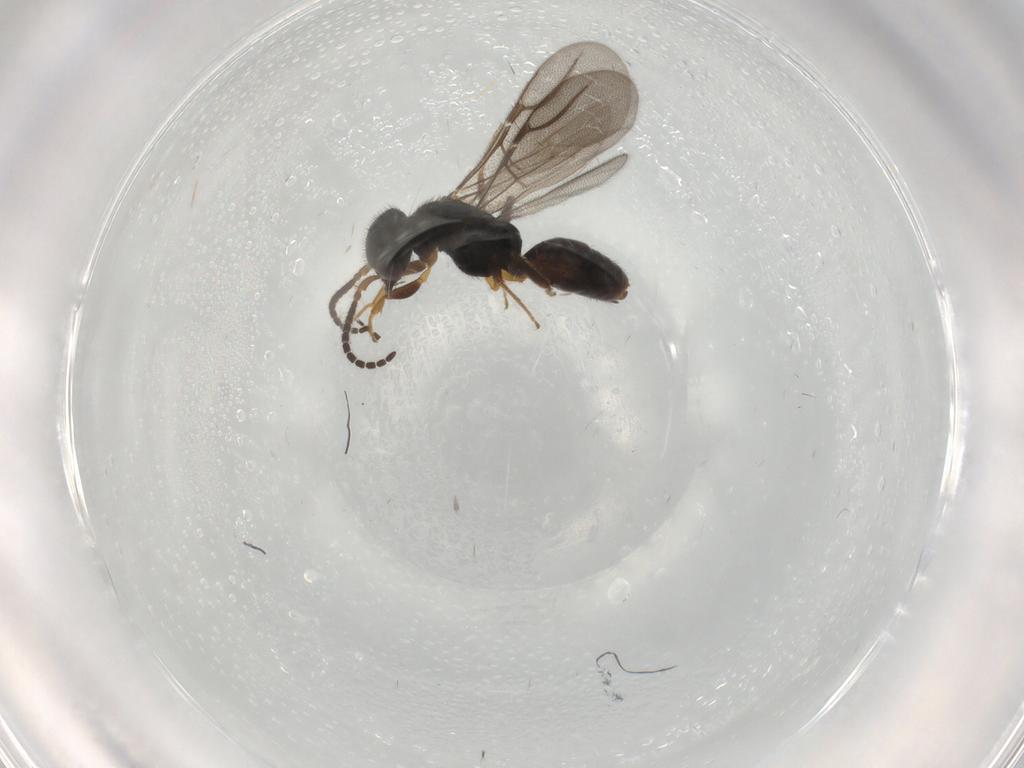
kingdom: Animalia
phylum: Arthropoda
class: Insecta
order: Hymenoptera
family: Bethylidae
